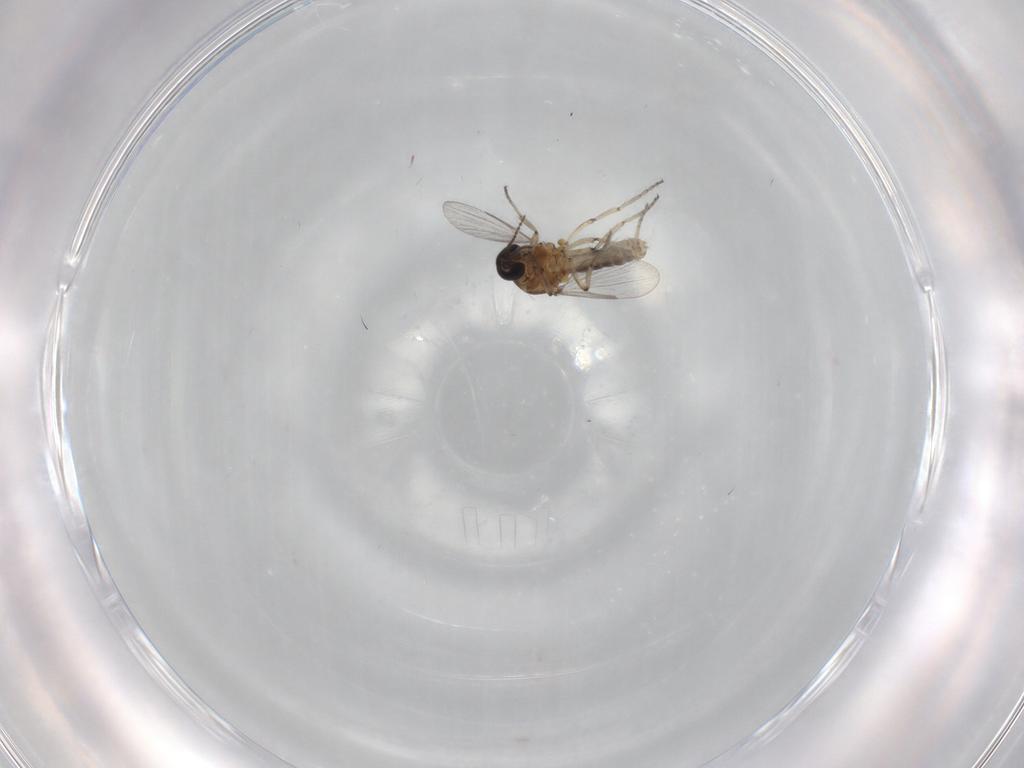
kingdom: Animalia
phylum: Arthropoda
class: Insecta
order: Diptera
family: Ceratopogonidae
